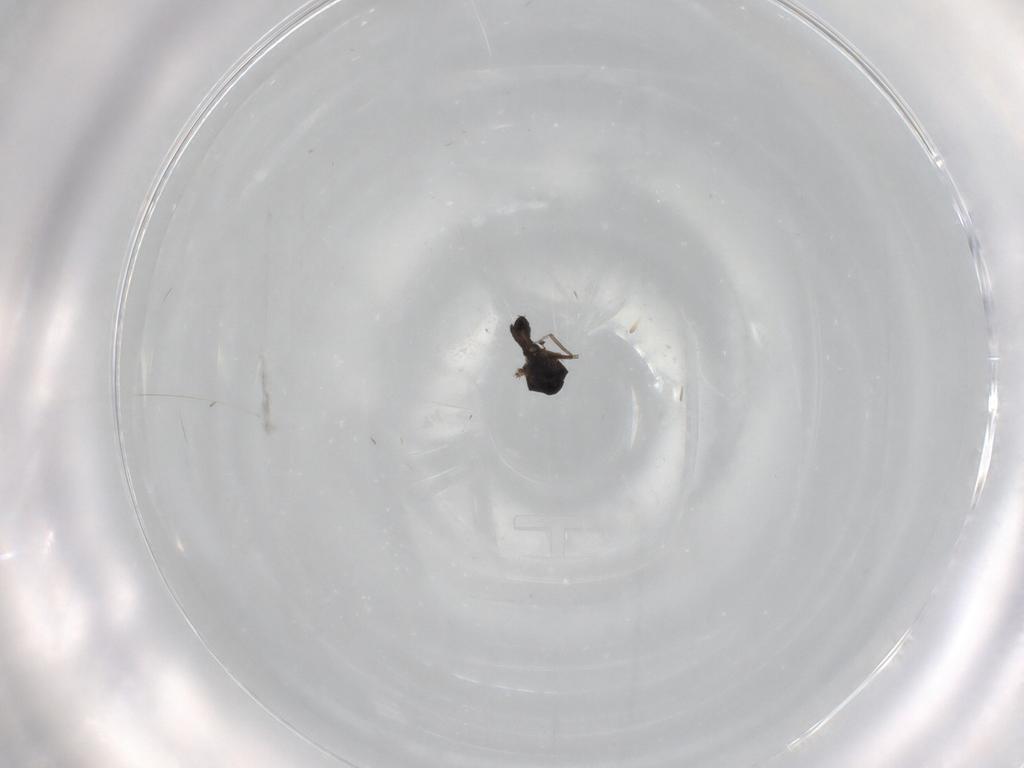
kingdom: Animalia
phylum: Arthropoda
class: Insecta
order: Diptera
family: Ceratopogonidae
